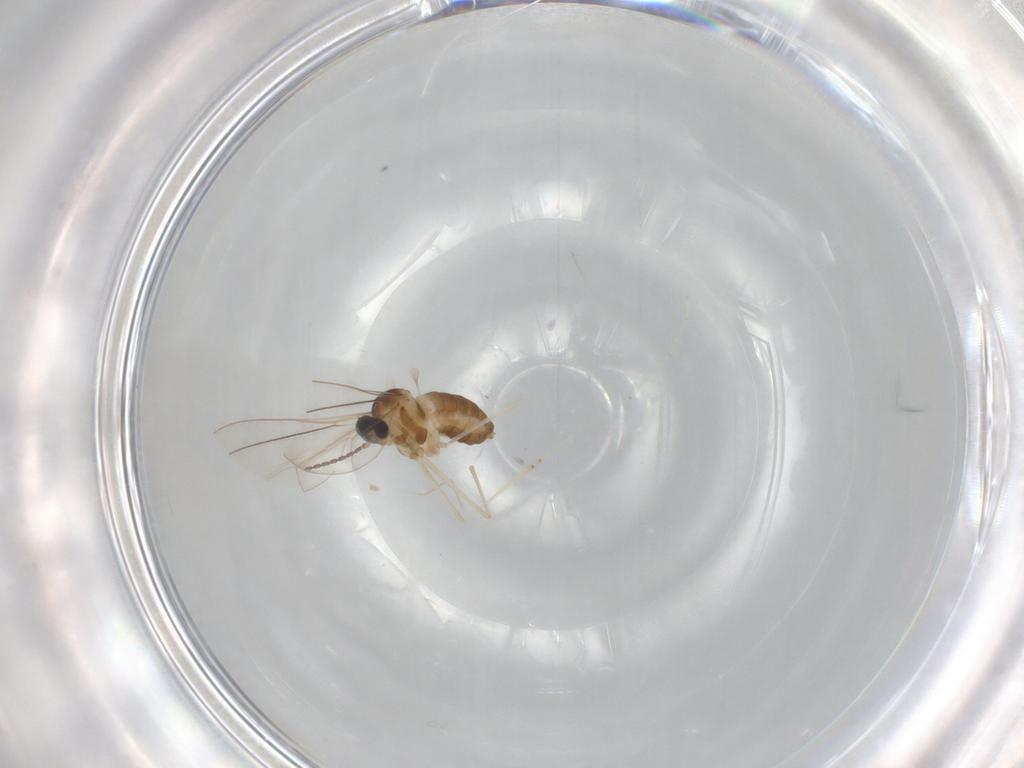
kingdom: Animalia
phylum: Arthropoda
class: Insecta
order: Diptera
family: Cecidomyiidae
